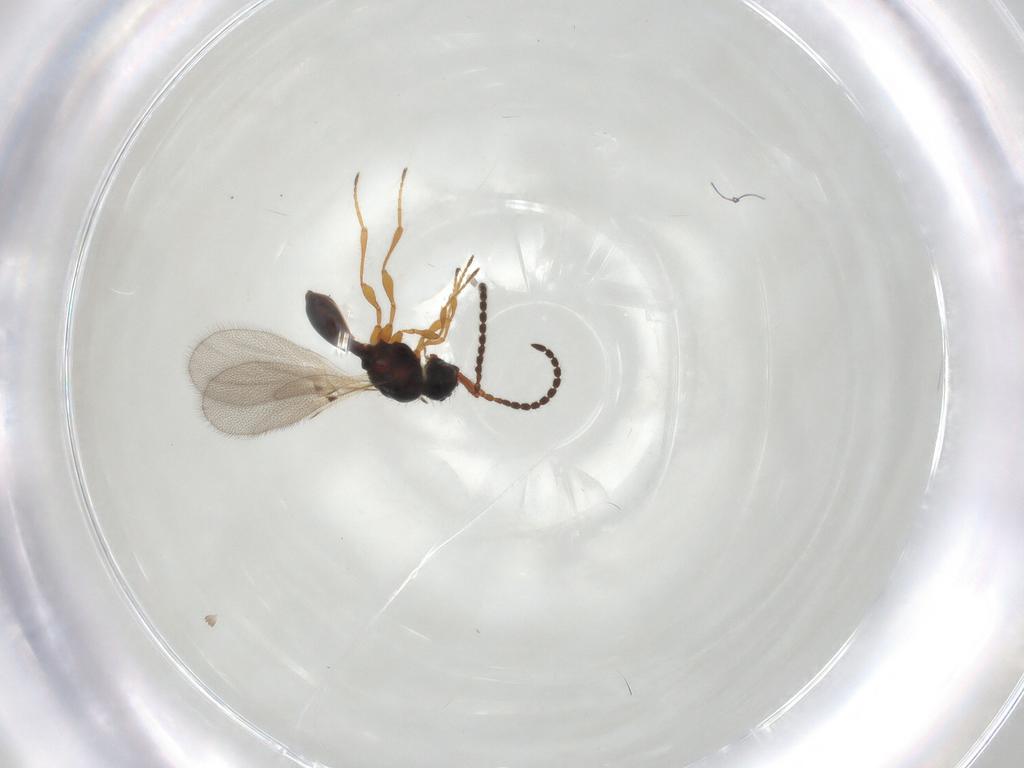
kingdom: Animalia
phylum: Arthropoda
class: Insecta
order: Hymenoptera
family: Diapriidae
